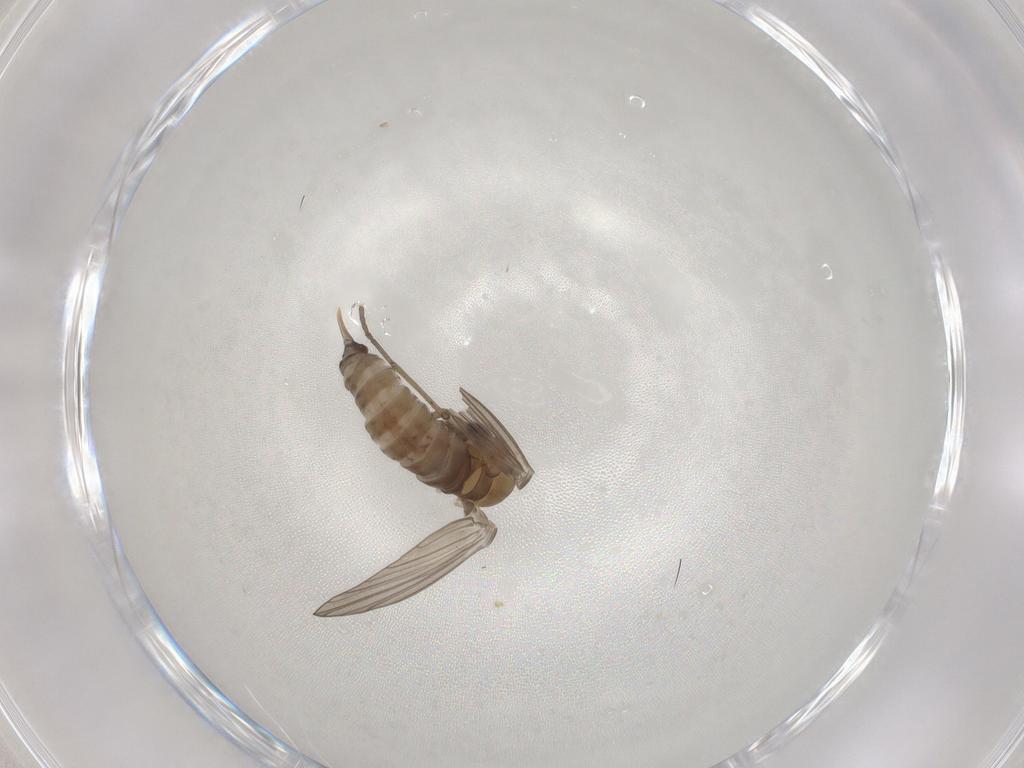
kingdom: Animalia
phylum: Arthropoda
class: Insecta
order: Diptera
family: Psychodidae
